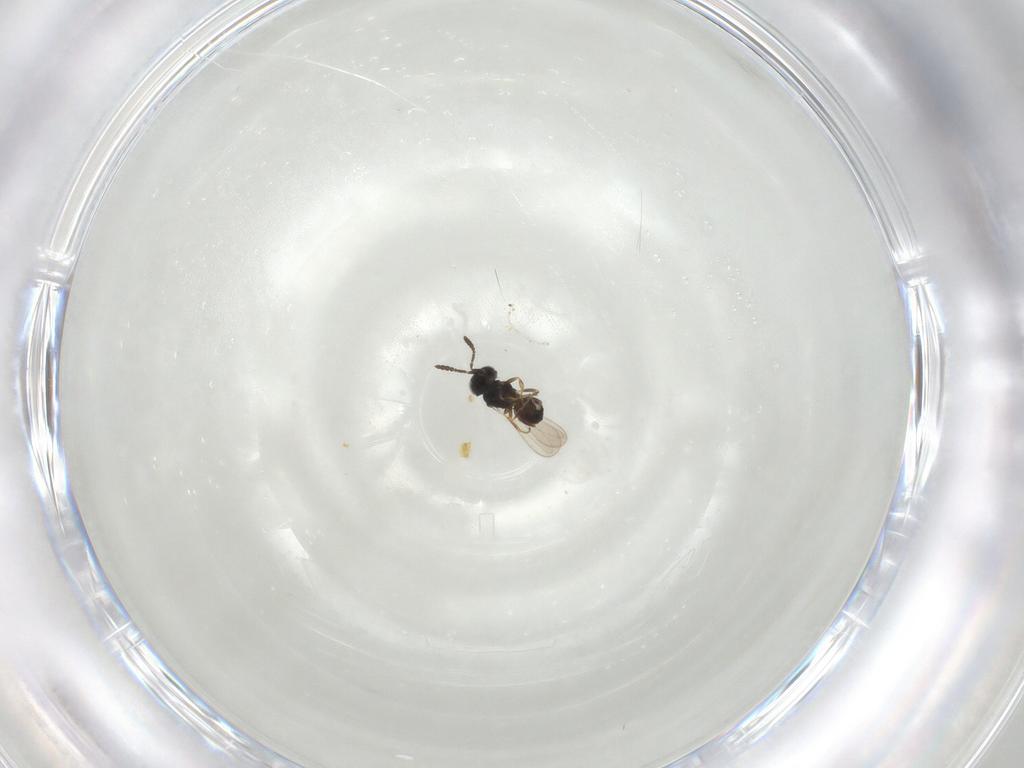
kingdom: Animalia
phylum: Arthropoda
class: Insecta
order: Hymenoptera
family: Scelionidae
